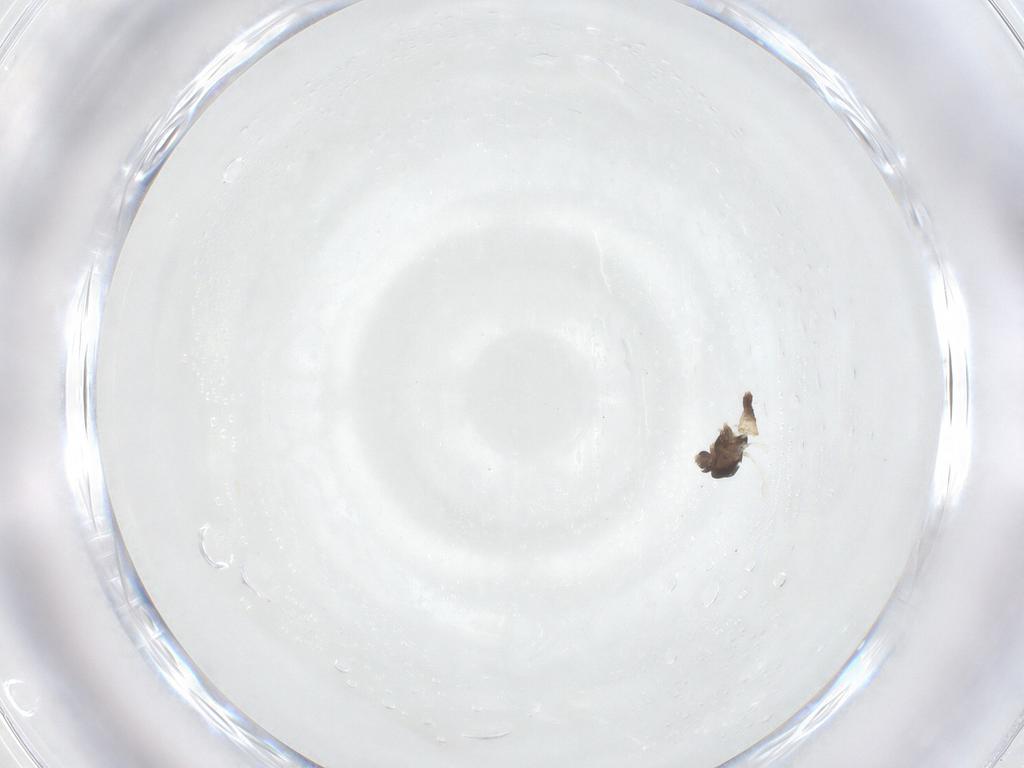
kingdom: Animalia
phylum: Arthropoda
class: Insecta
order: Diptera
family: Chironomidae
